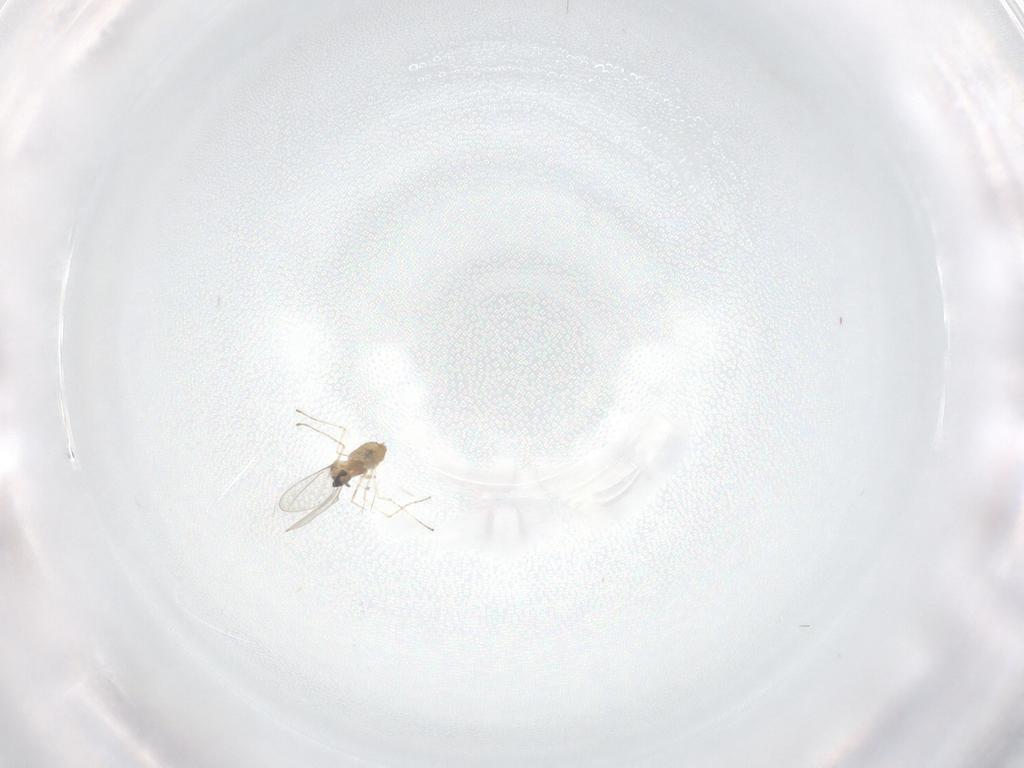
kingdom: Animalia
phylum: Arthropoda
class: Insecta
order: Diptera
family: Cecidomyiidae
